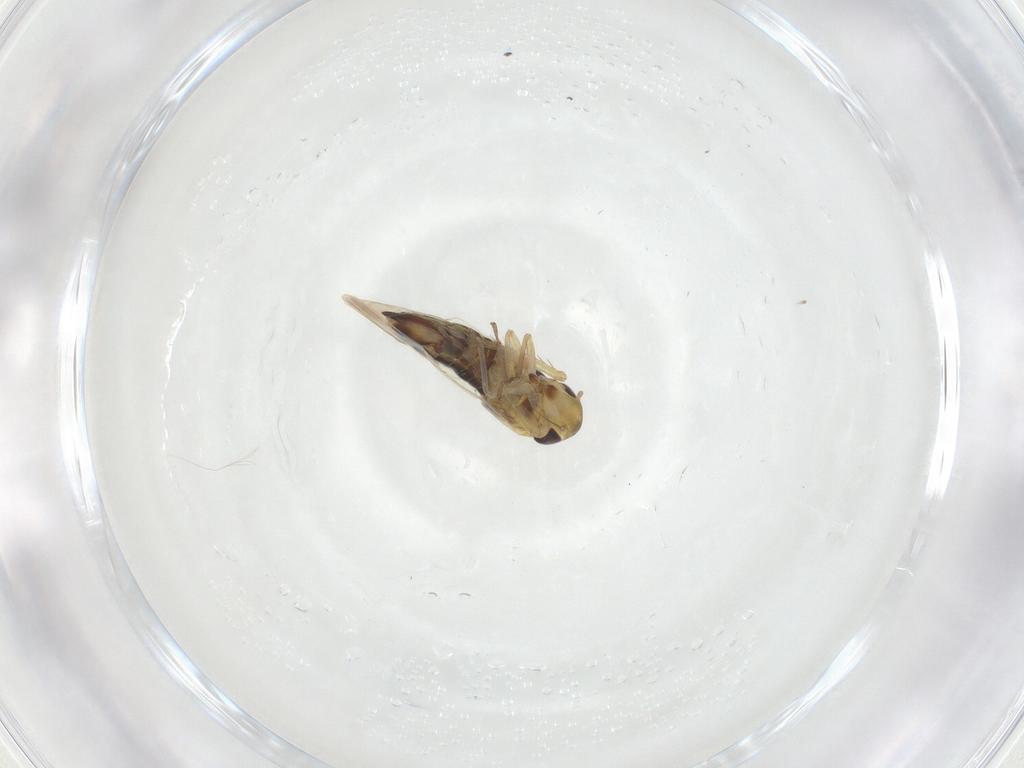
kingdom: Animalia
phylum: Arthropoda
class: Insecta
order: Hemiptera
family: Cicadellidae
